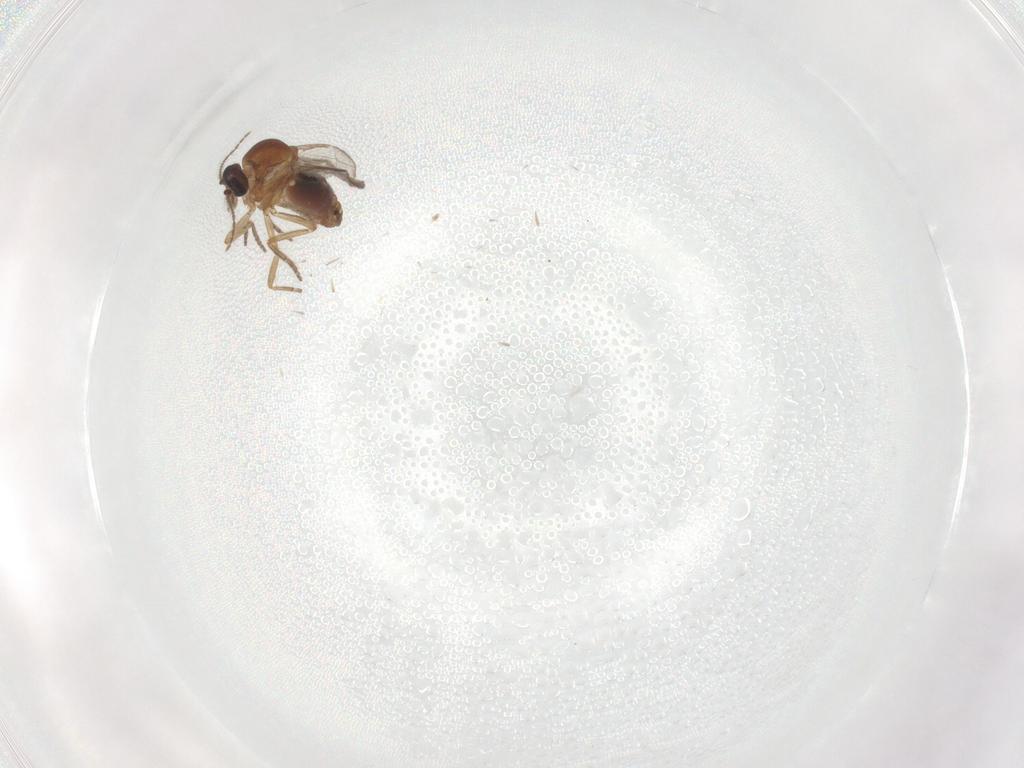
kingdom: Animalia
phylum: Arthropoda
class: Insecta
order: Diptera
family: Ceratopogonidae
